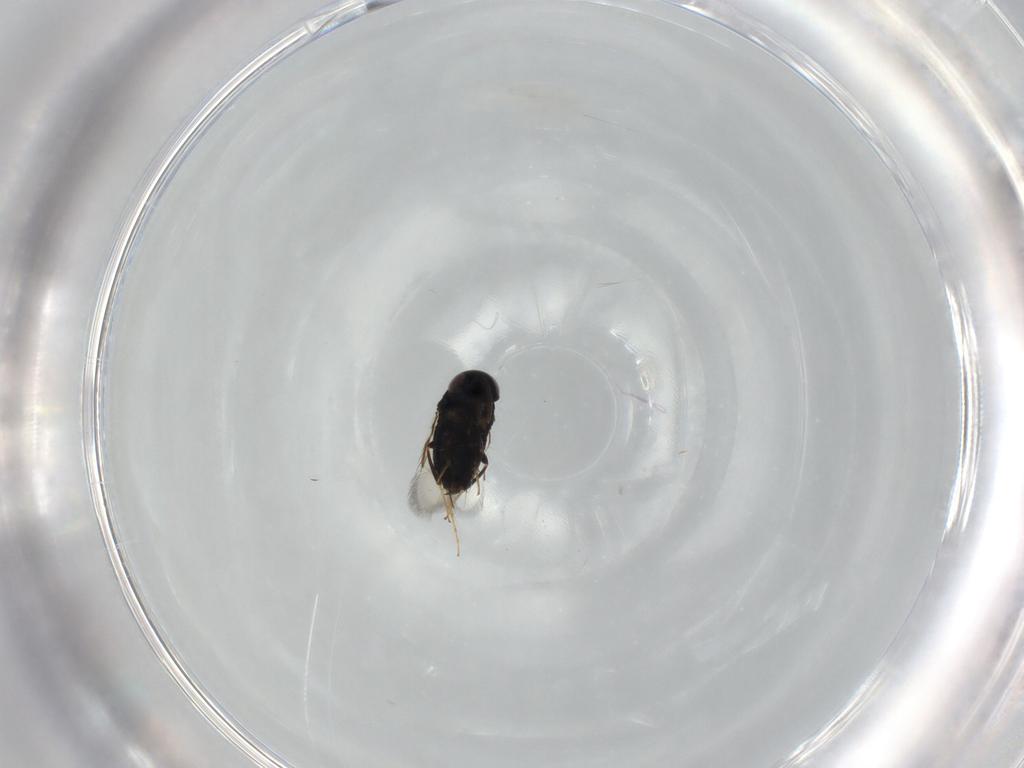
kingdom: Animalia
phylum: Arthropoda
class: Insecta
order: Hymenoptera
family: Signiphoridae
